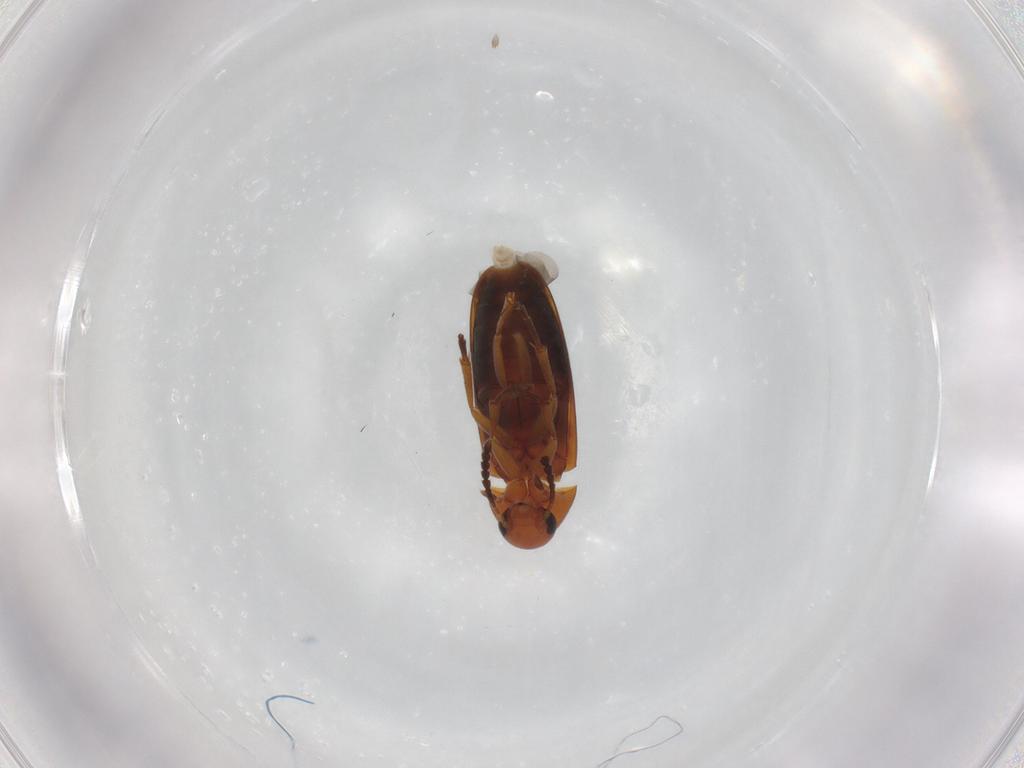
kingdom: Animalia
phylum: Arthropoda
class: Insecta
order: Coleoptera
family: Scraptiidae
